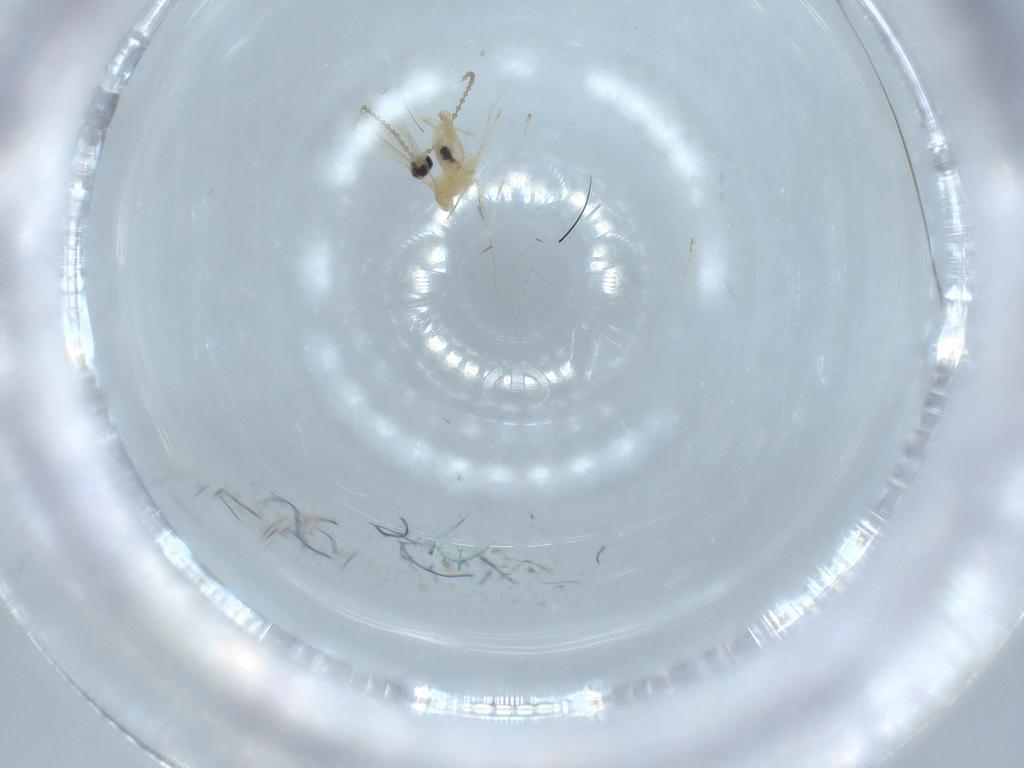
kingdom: Animalia
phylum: Arthropoda
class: Insecta
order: Diptera
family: Cecidomyiidae
